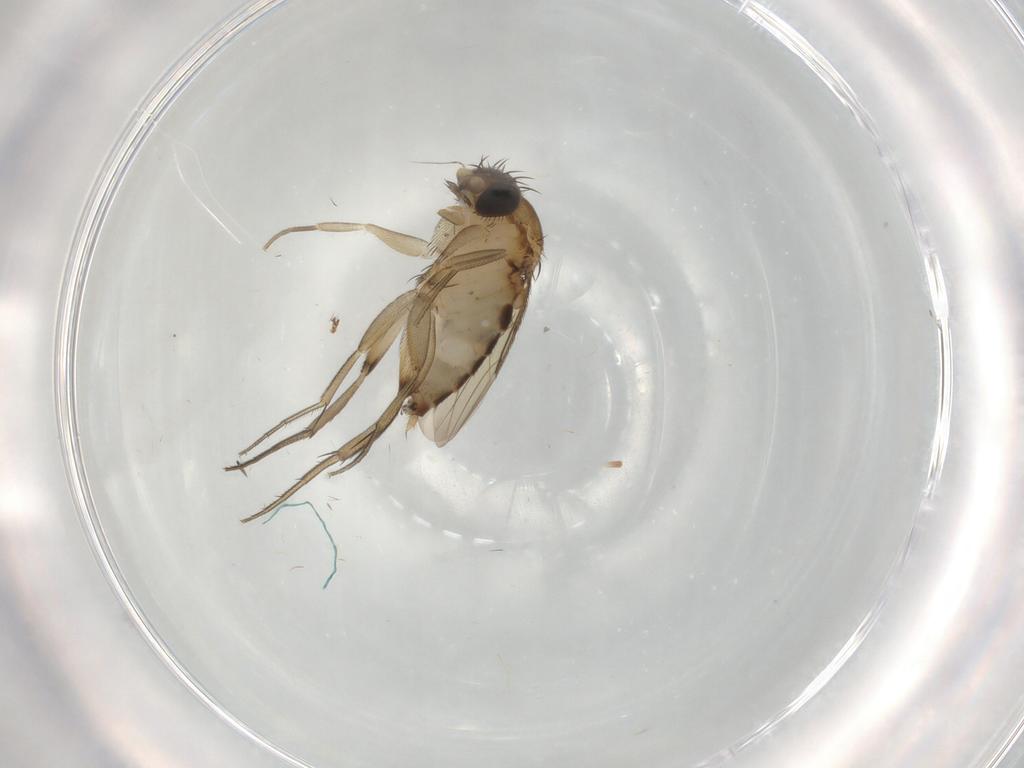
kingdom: Animalia
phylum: Arthropoda
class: Insecta
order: Diptera
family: Phoridae
